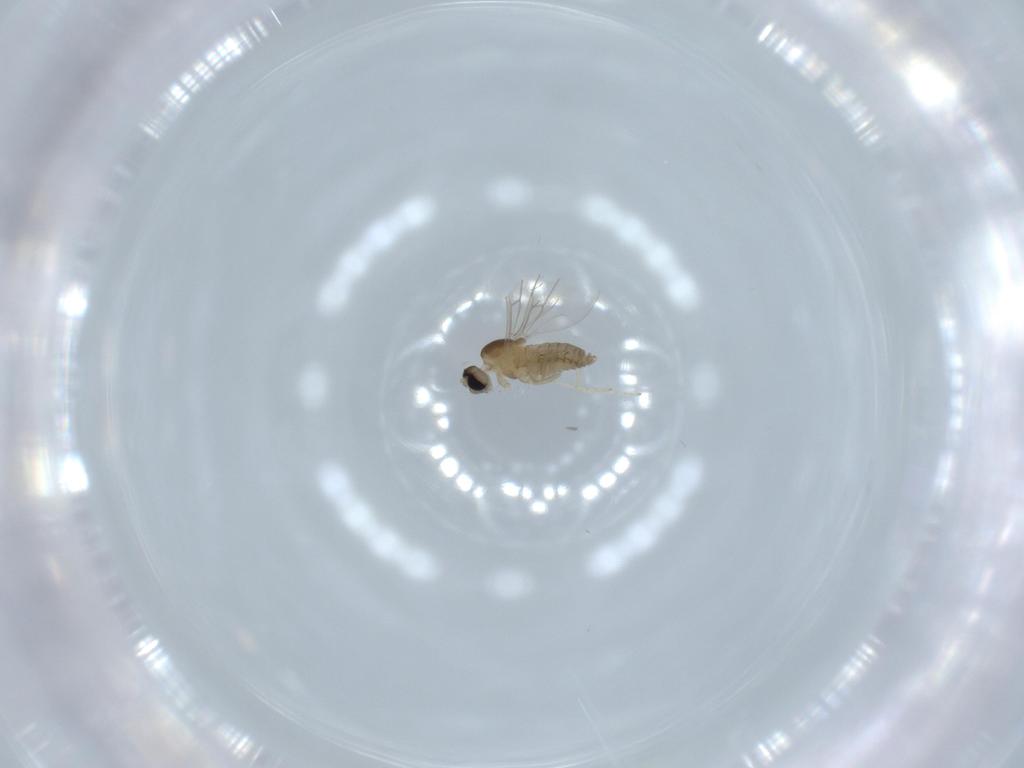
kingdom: Animalia
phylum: Arthropoda
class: Insecta
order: Diptera
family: Cecidomyiidae
